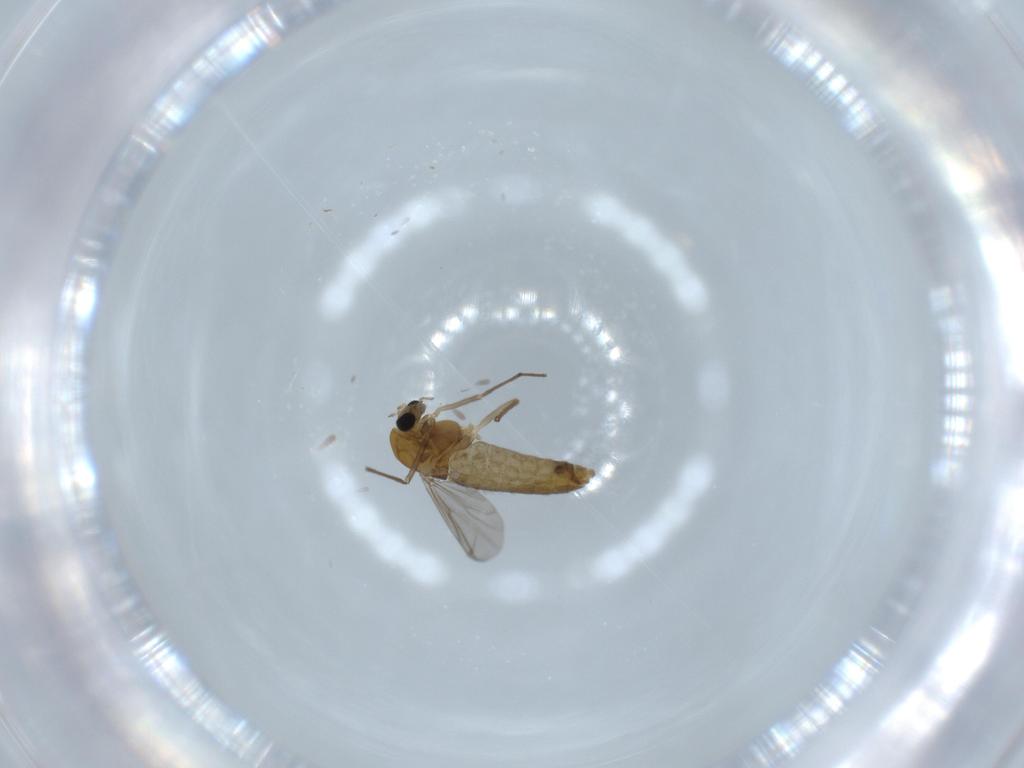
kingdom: Animalia
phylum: Arthropoda
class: Insecta
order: Diptera
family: Chironomidae
